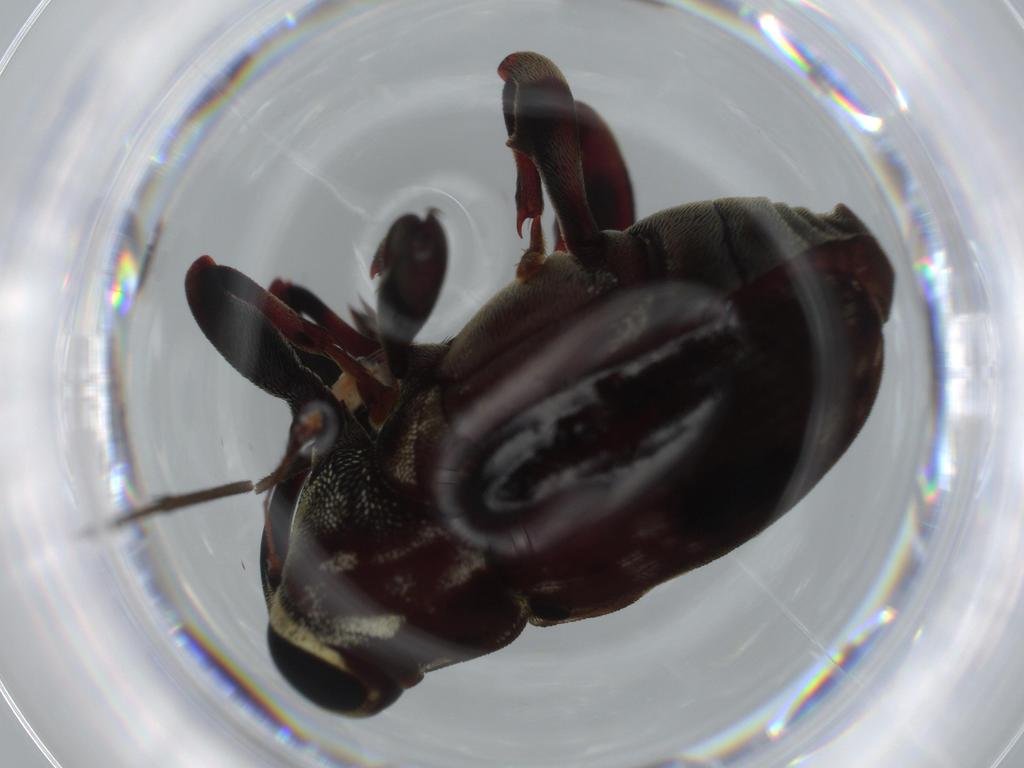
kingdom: Animalia
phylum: Arthropoda
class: Insecta
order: Coleoptera
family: Curculionidae
